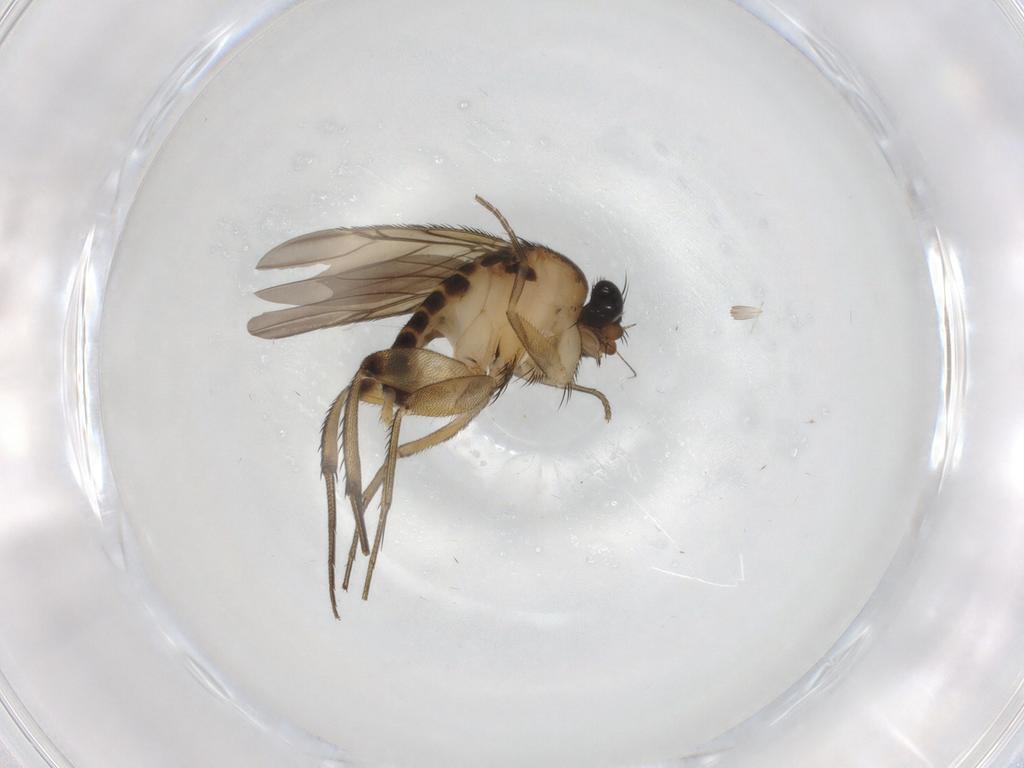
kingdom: Animalia
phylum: Arthropoda
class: Insecta
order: Diptera
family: Phoridae
